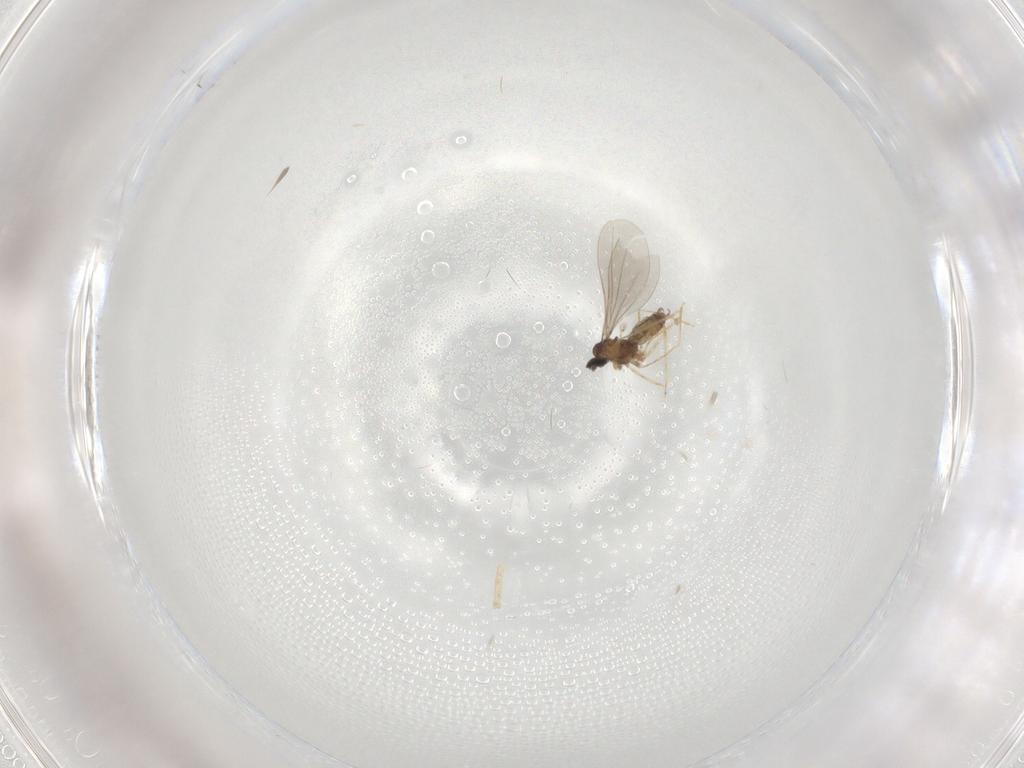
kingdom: Animalia
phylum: Arthropoda
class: Insecta
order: Diptera
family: Cecidomyiidae
